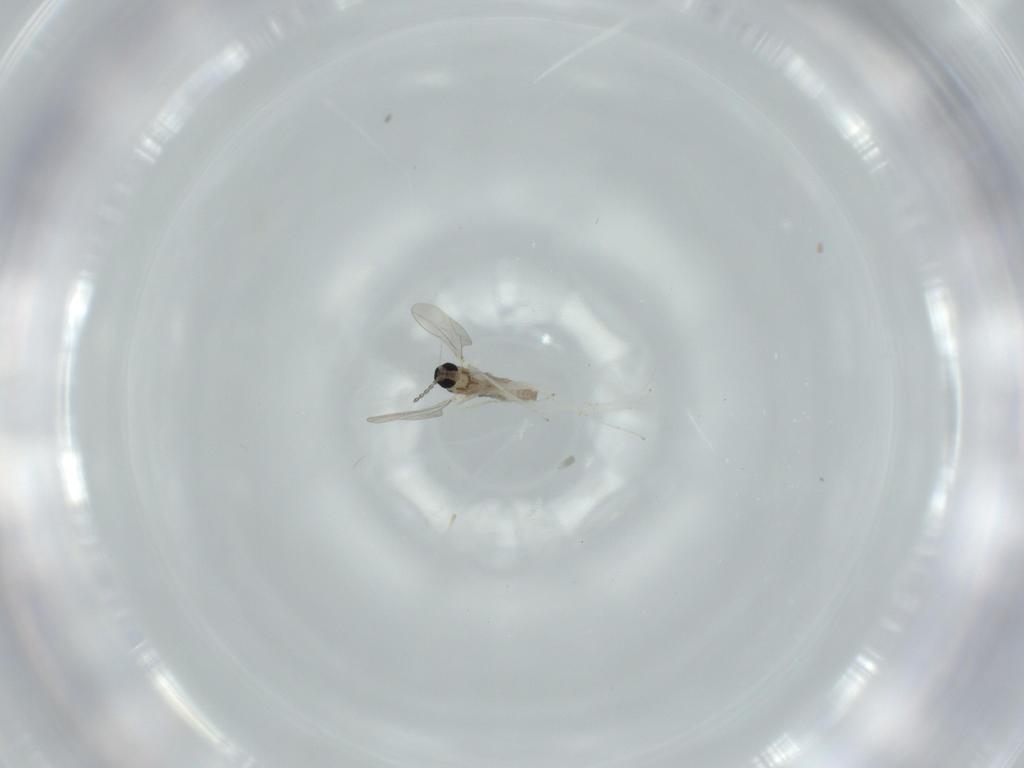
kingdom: Animalia
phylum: Arthropoda
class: Insecta
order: Diptera
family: Cecidomyiidae
